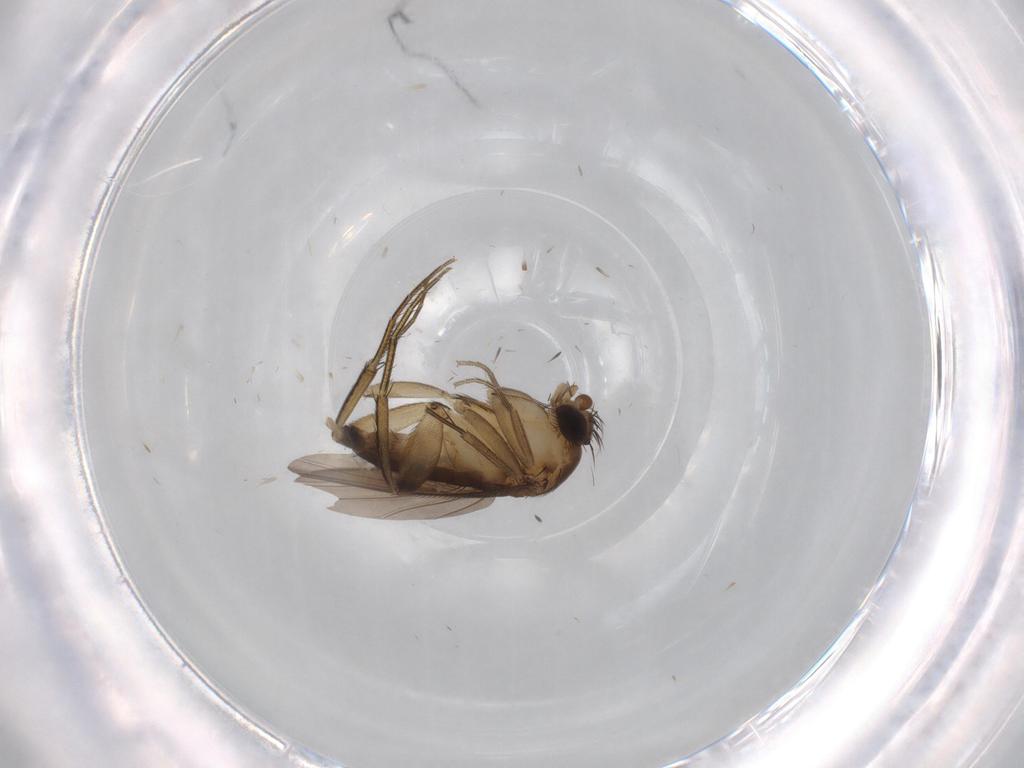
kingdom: Animalia
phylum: Arthropoda
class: Insecta
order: Diptera
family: Phoridae
